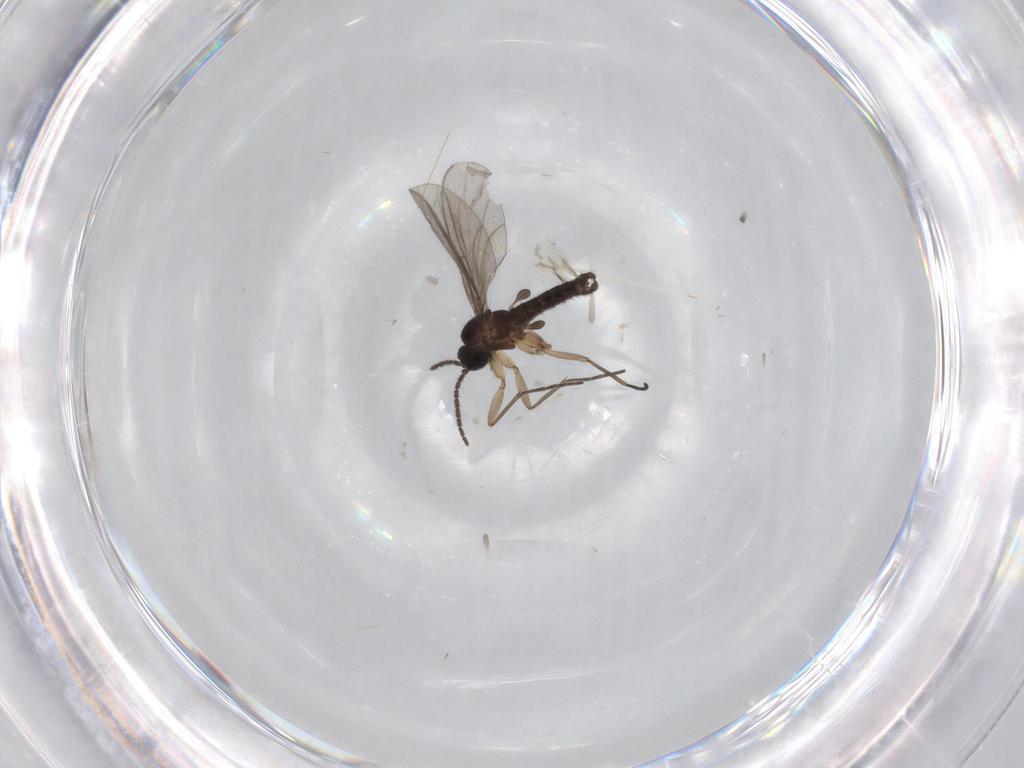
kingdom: Animalia
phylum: Arthropoda
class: Insecta
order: Diptera
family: Sciaridae
